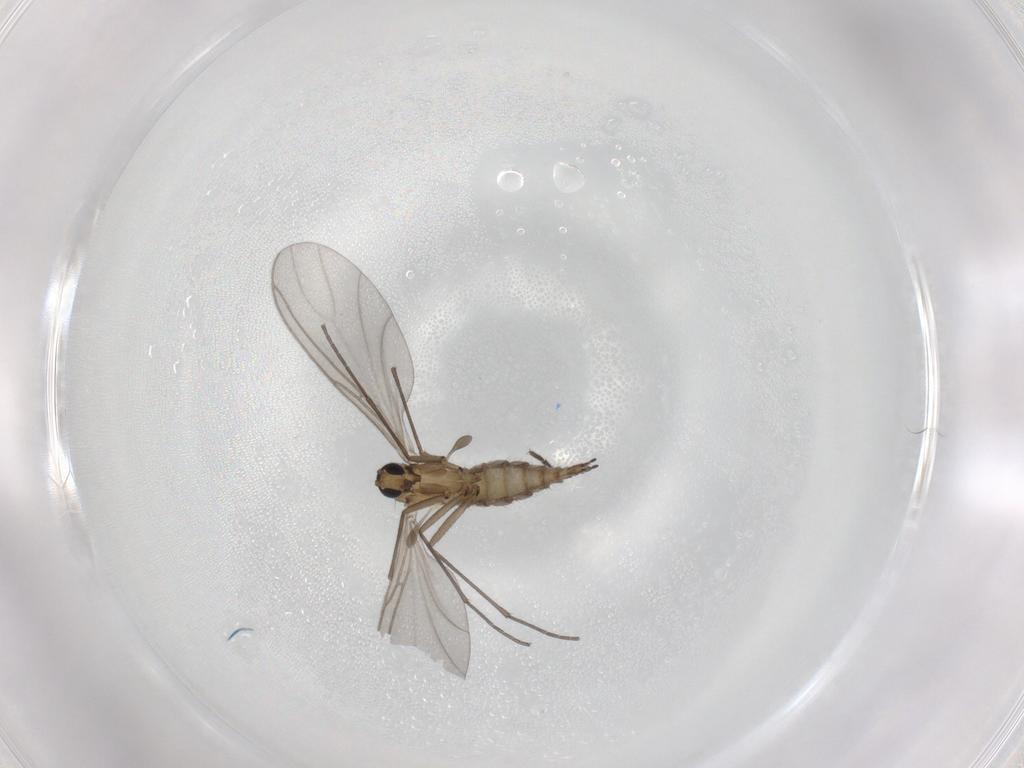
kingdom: Animalia
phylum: Arthropoda
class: Insecta
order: Diptera
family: Sciaridae
